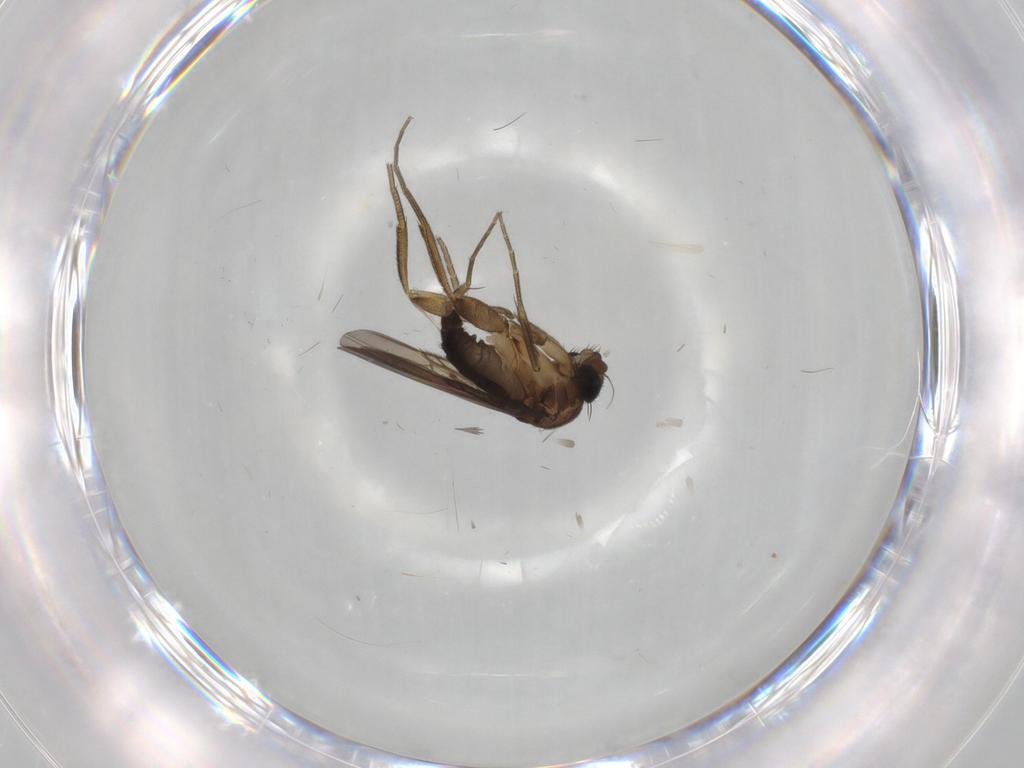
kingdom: Animalia
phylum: Arthropoda
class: Insecta
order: Diptera
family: Phoridae
